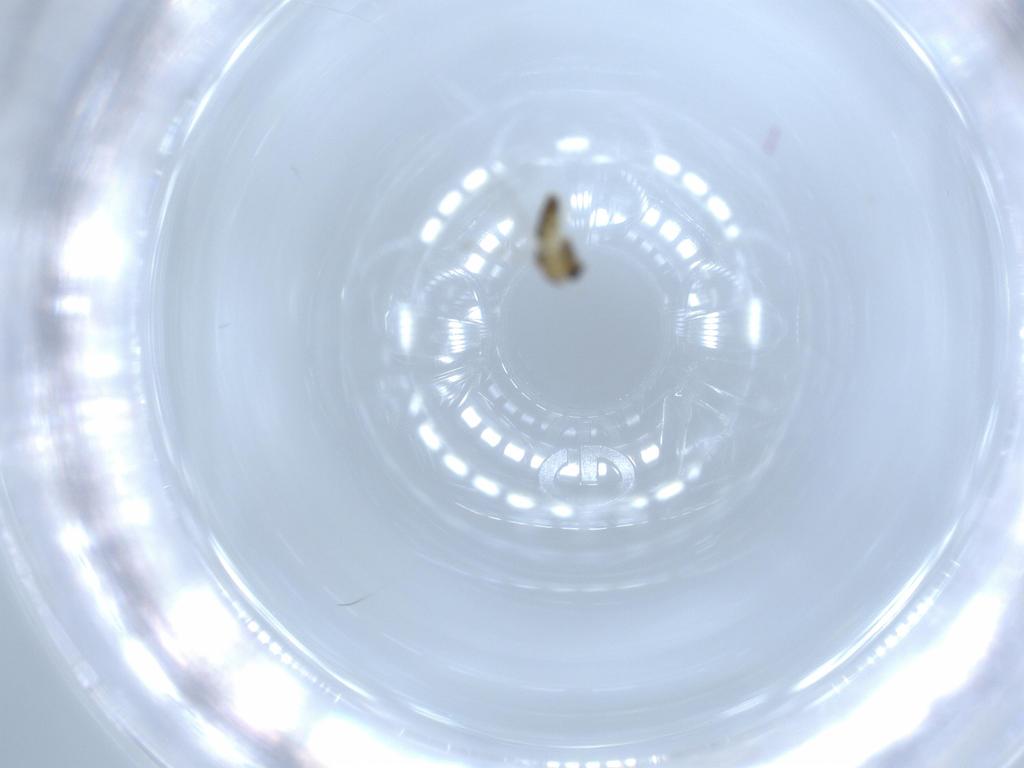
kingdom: Animalia
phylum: Arthropoda
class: Insecta
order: Diptera
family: Chironomidae
